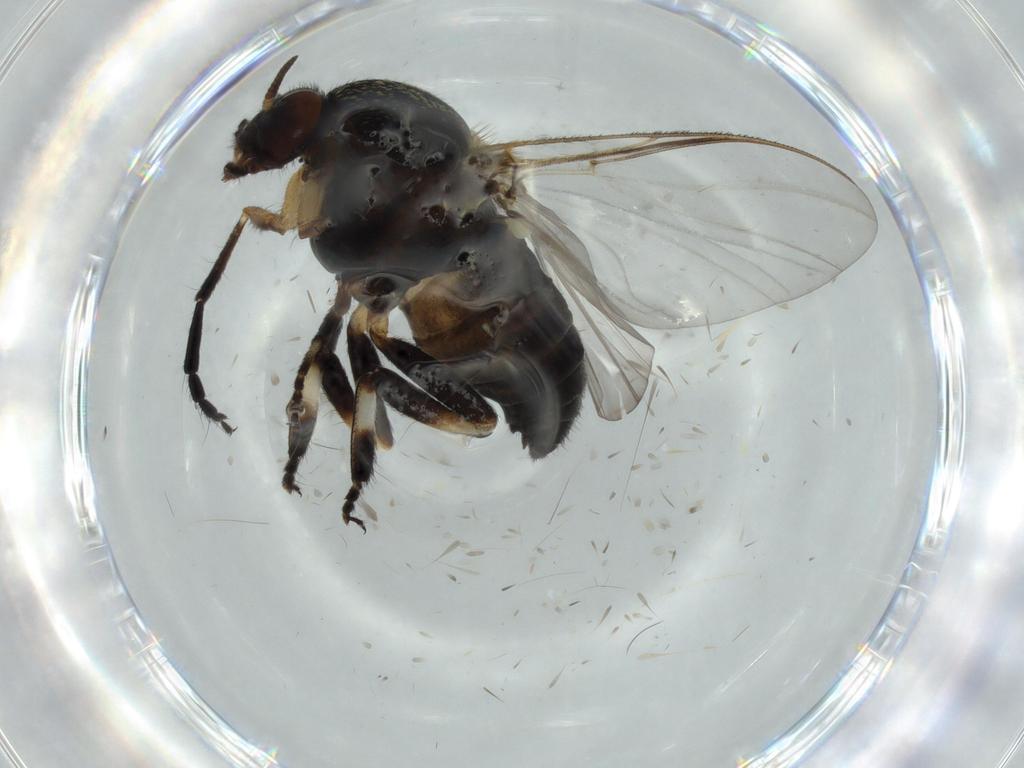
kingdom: Animalia
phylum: Arthropoda
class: Insecta
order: Diptera
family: Pipunculidae
